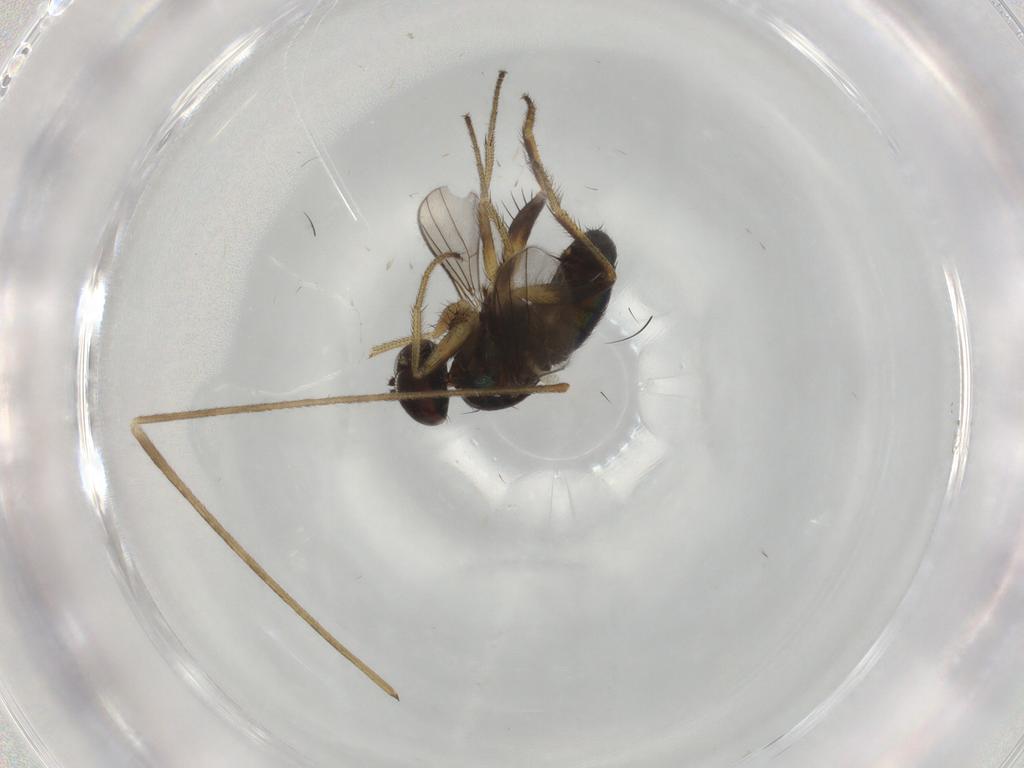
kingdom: Animalia
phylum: Arthropoda
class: Insecta
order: Diptera
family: Dolichopodidae
